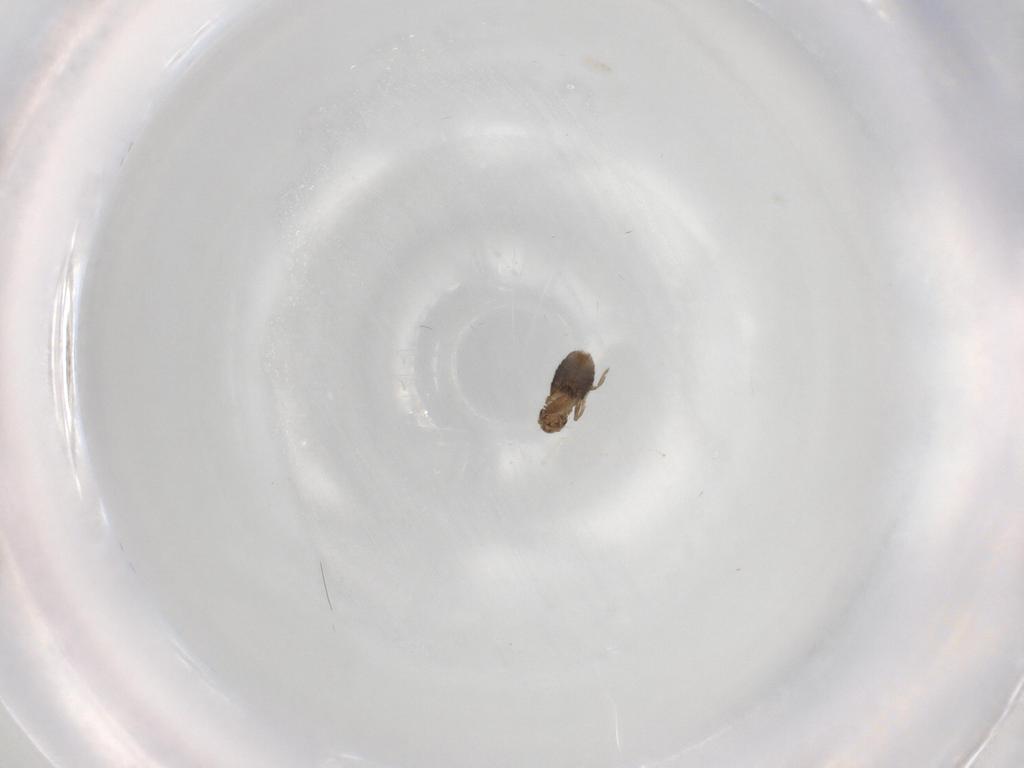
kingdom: Animalia
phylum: Arthropoda
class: Insecta
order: Diptera
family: Cecidomyiidae
